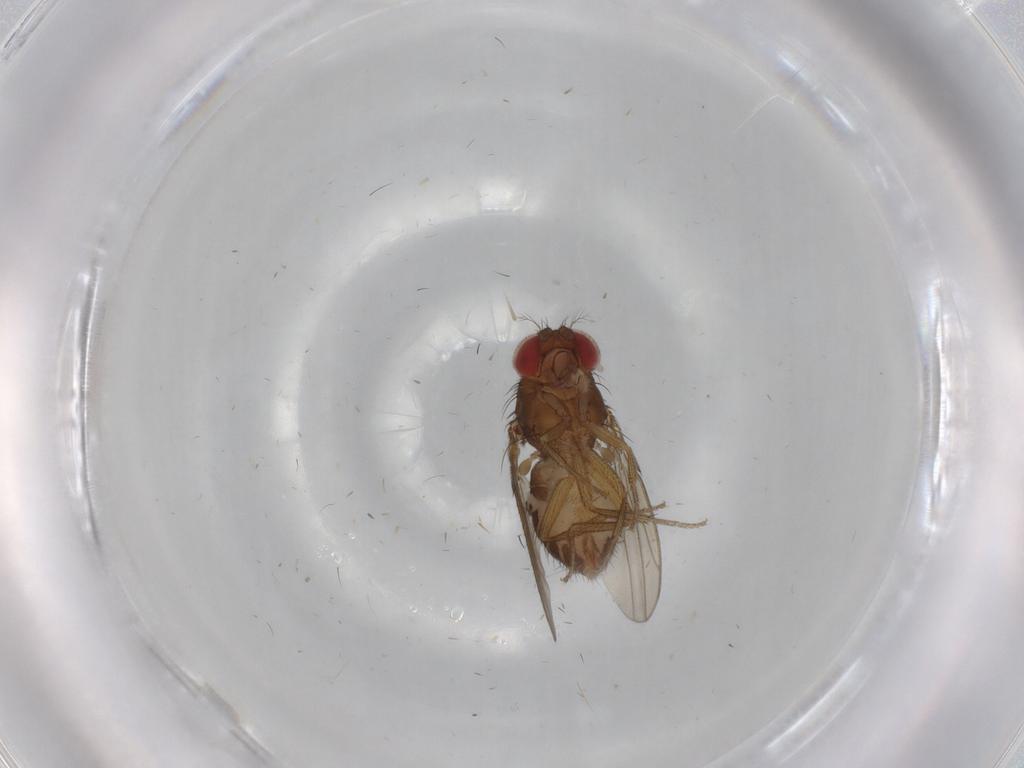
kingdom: Animalia
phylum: Arthropoda
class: Insecta
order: Diptera
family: Drosophilidae
